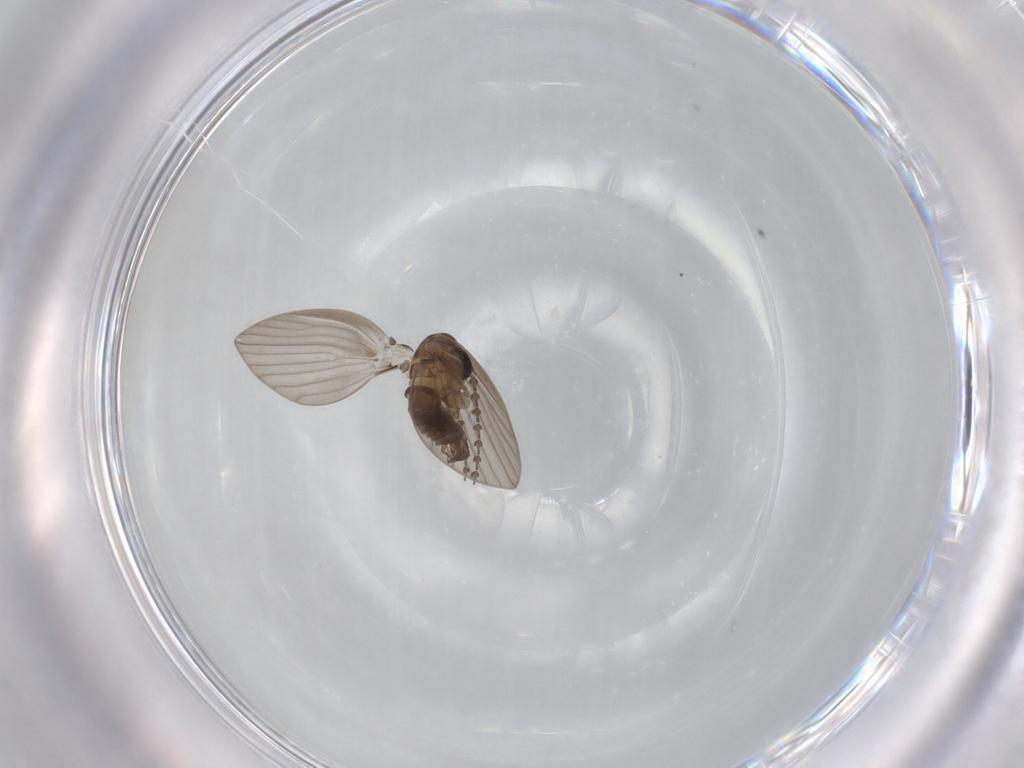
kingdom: Animalia
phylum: Arthropoda
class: Insecta
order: Diptera
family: Psychodidae
